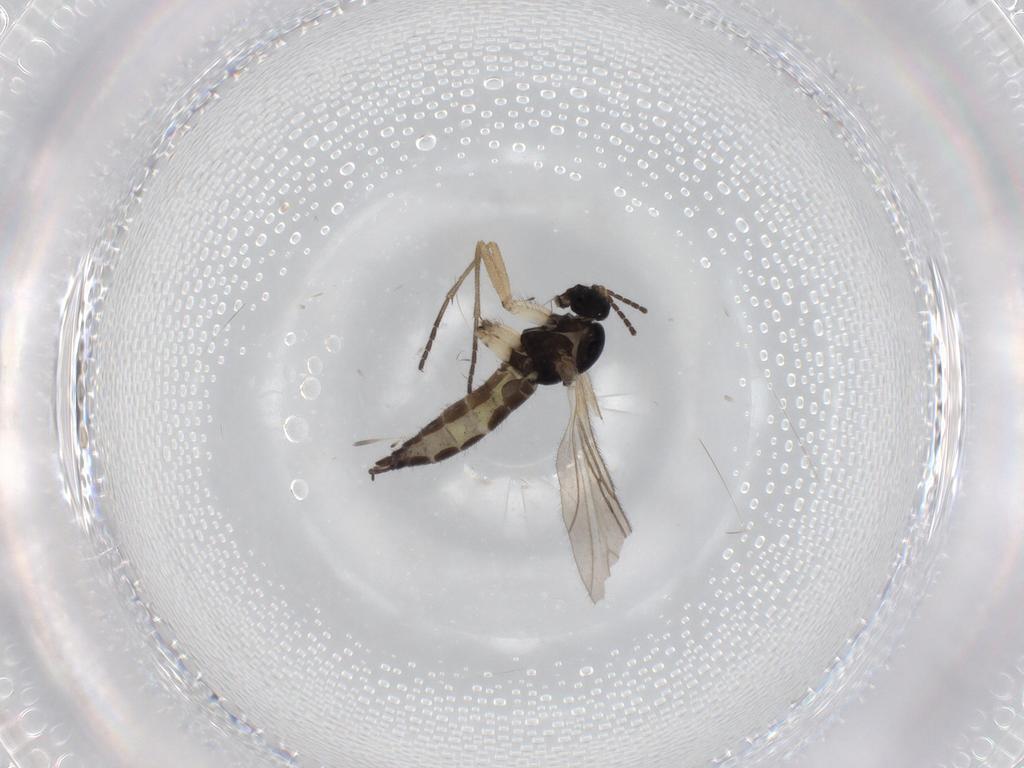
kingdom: Animalia
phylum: Arthropoda
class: Insecta
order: Diptera
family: Sciaridae
